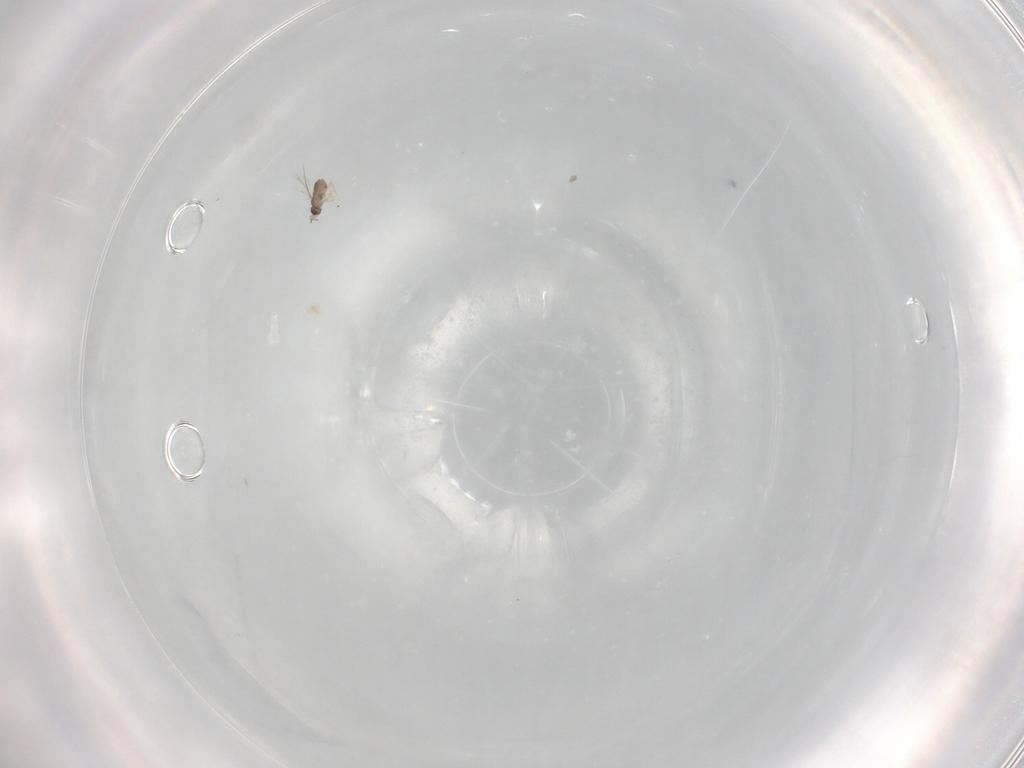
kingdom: Animalia
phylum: Arthropoda
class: Insecta
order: Hymenoptera
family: Mymaridae
